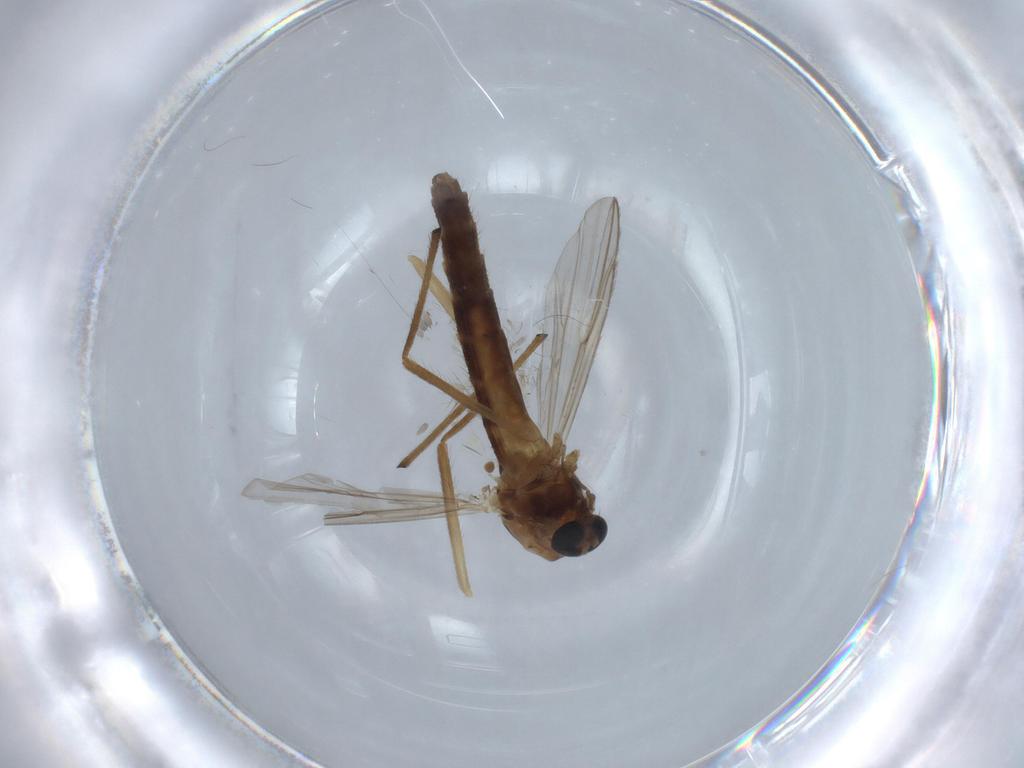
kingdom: Animalia
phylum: Arthropoda
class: Insecta
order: Diptera
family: Chironomidae
